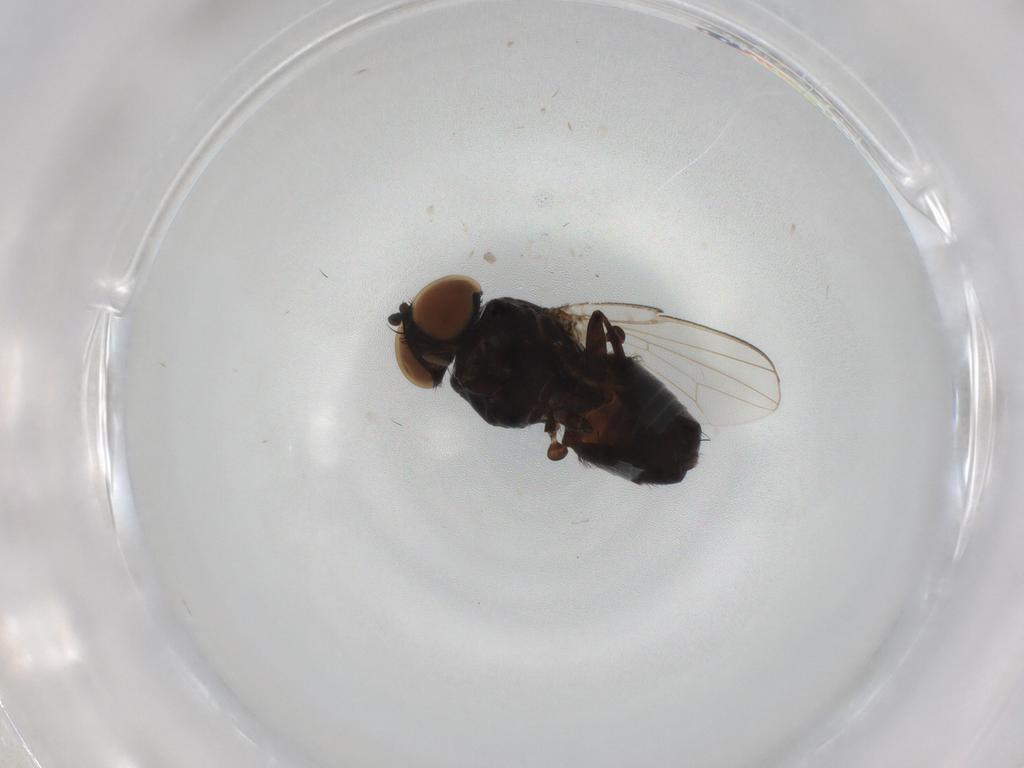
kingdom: Animalia
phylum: Arthropoda
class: Insecta
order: Diptera
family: Milichiidae
